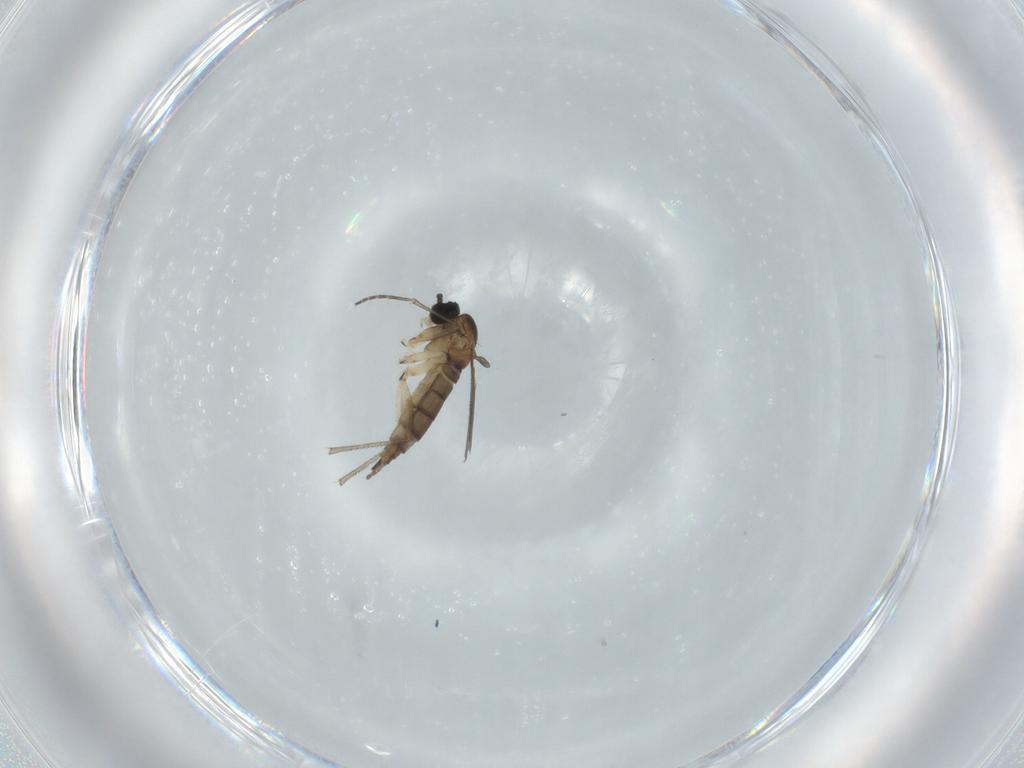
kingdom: Animalia
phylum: Arthropoda
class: Insecta
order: Diptera
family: Sciaridae
